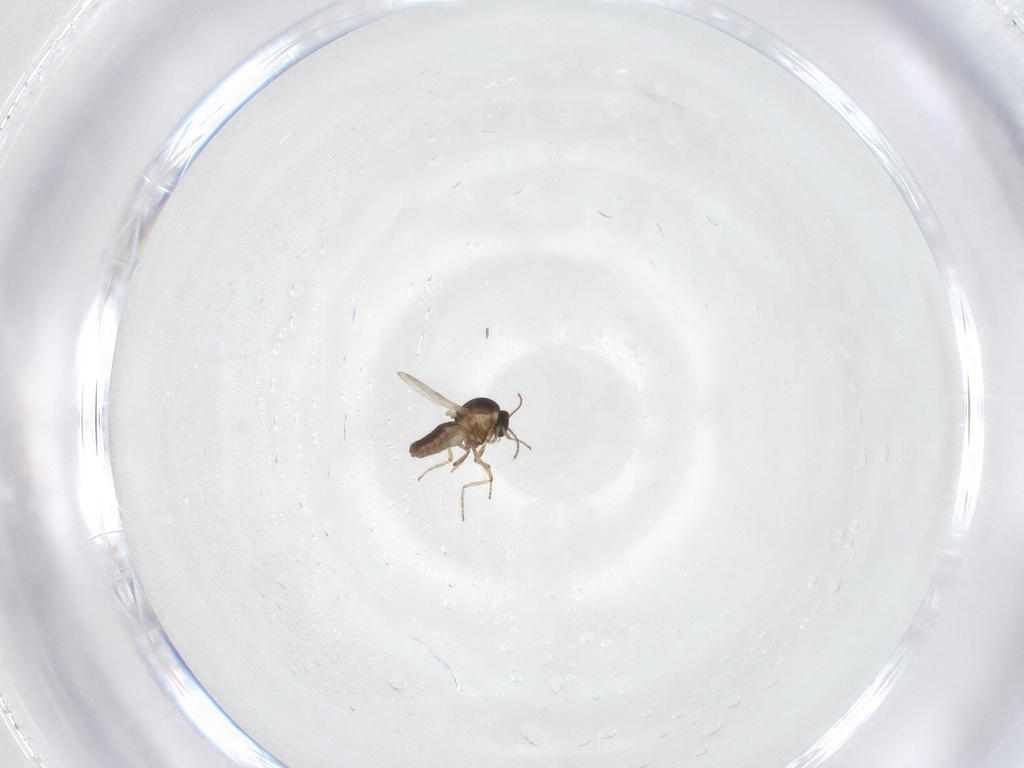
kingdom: Animalia
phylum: Arthropoda
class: Insecta
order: Diptera
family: Ceratopogonidae
